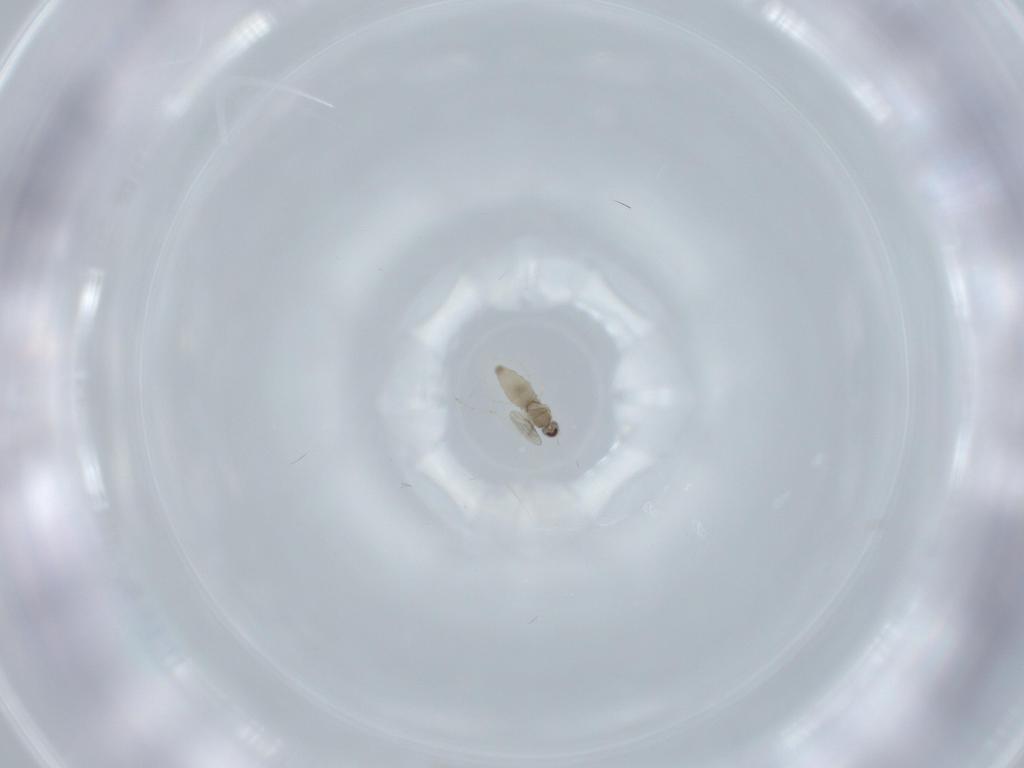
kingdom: Animalia
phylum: Arthropoda
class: Insecta
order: Diptera
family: Cecidomyiidae
